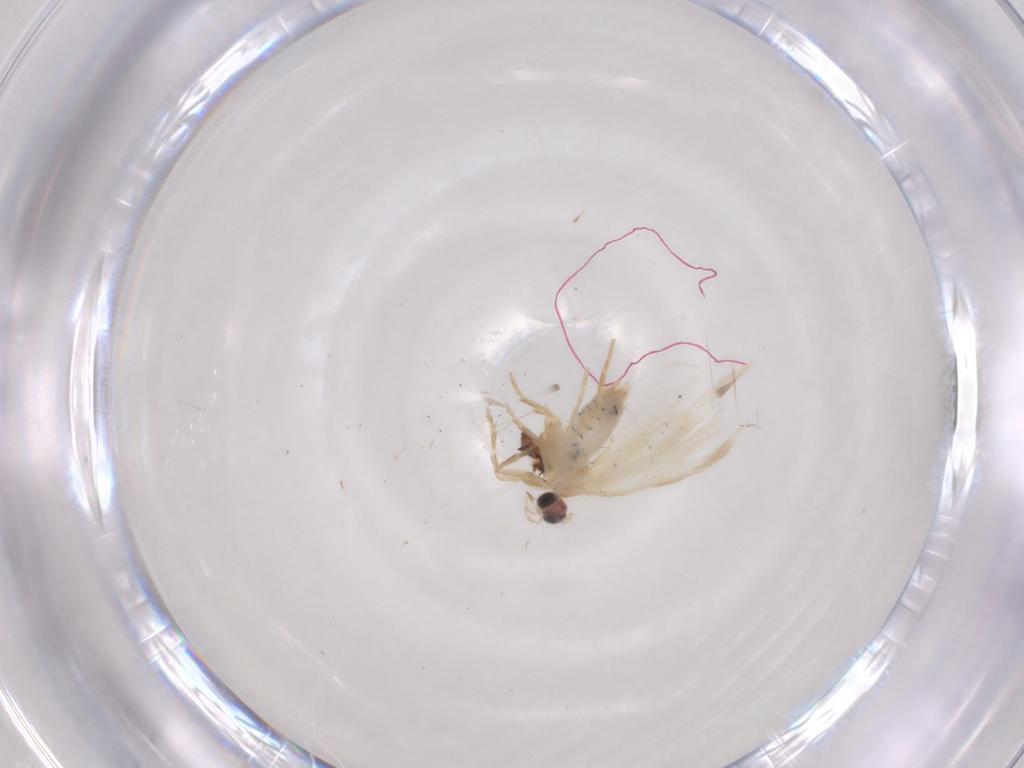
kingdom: Animalia
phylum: Arthropoda
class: Insecta
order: Lepidoptera
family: Nepticulidae
